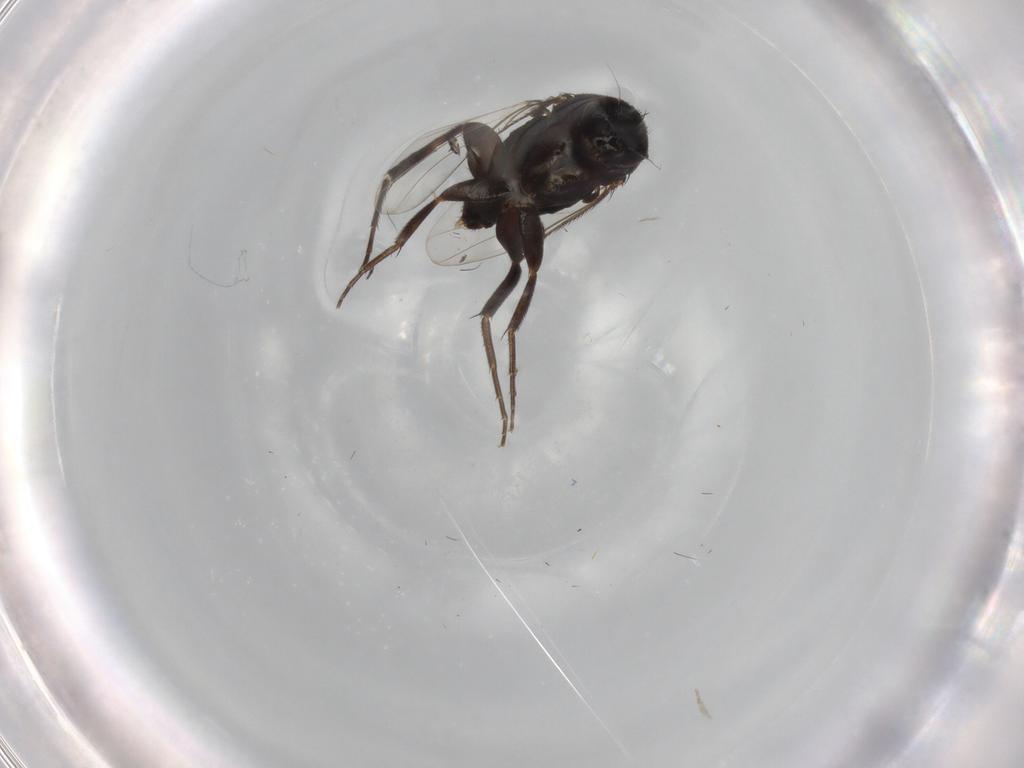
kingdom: Animalia
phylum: Arthropoda
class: Insecta
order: Diptera
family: Phoridae
